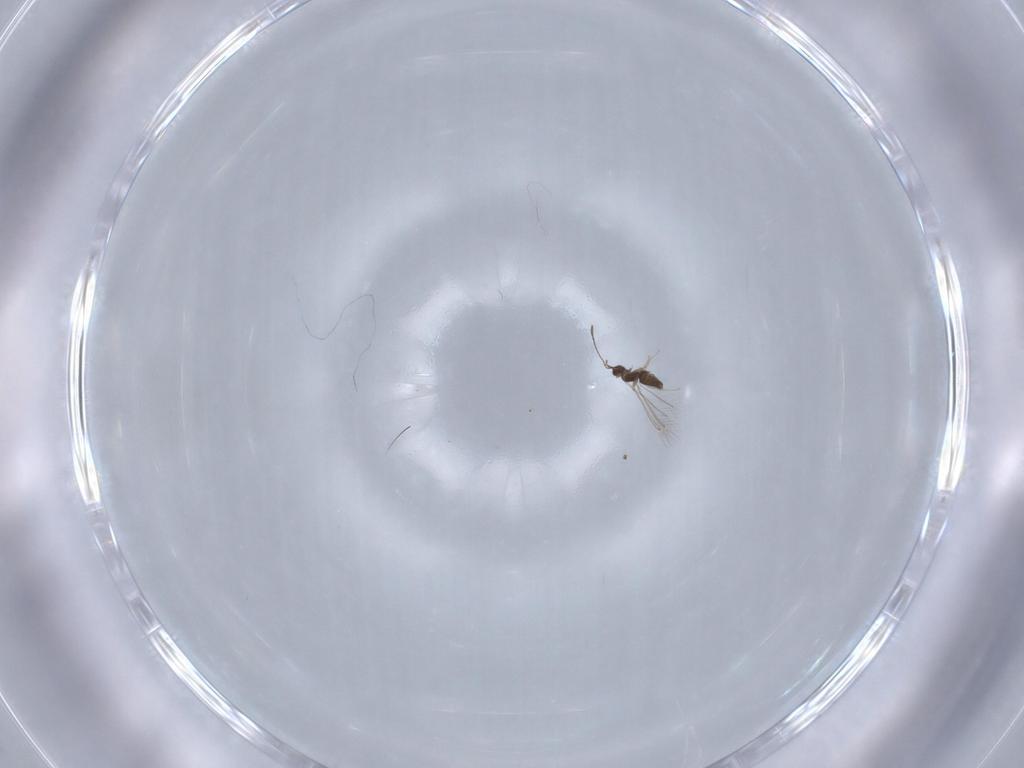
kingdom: Animalia
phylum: Arthropoda
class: Insecta
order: Hymenoptera
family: Mymaridae
